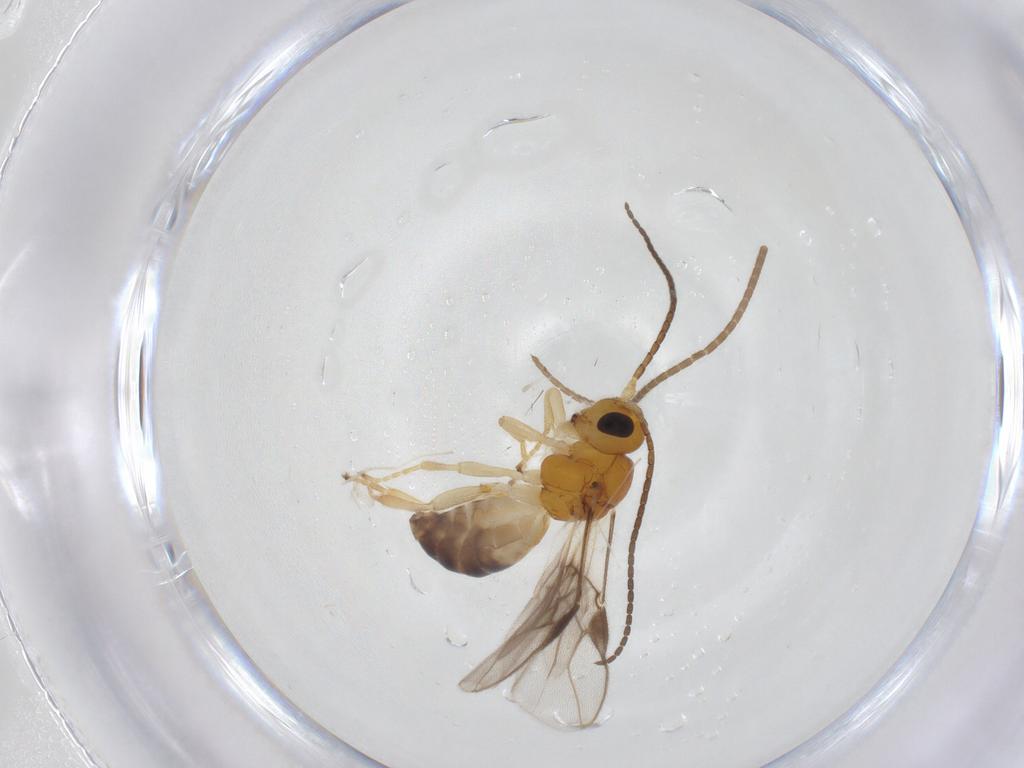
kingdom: Animalia
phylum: Arthropoda
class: Insecta
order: Hymenoptera
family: Braconidae
